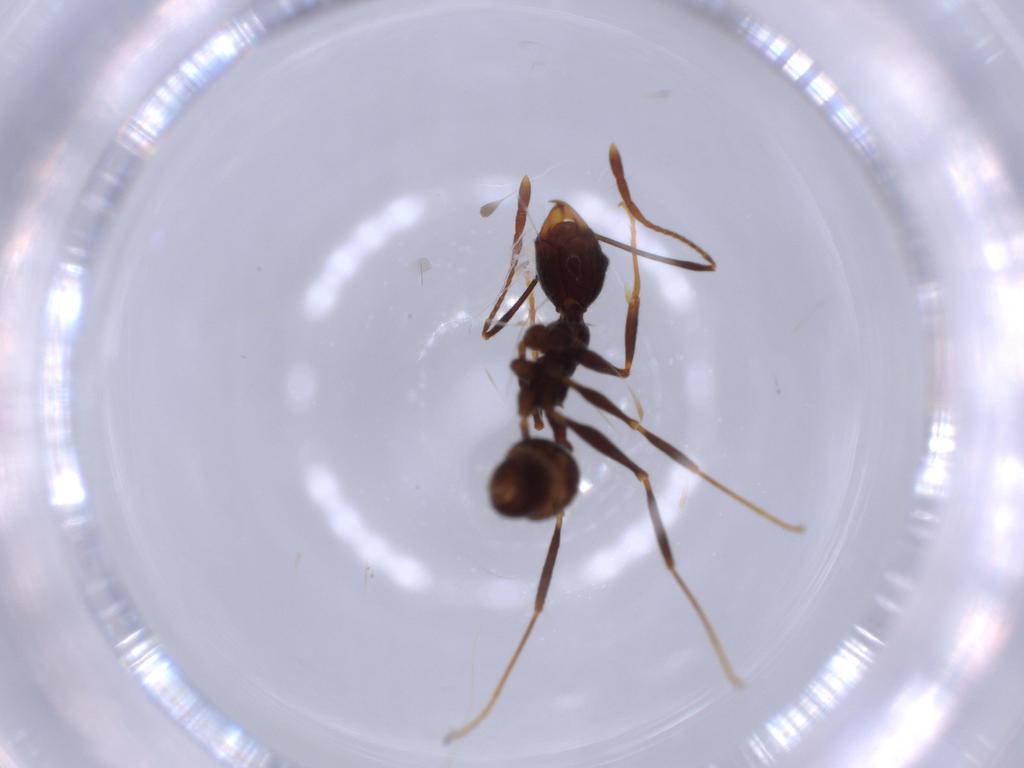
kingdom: Animalia
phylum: Arthropoda
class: Insecta
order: Hymenoptera
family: Formicidae
